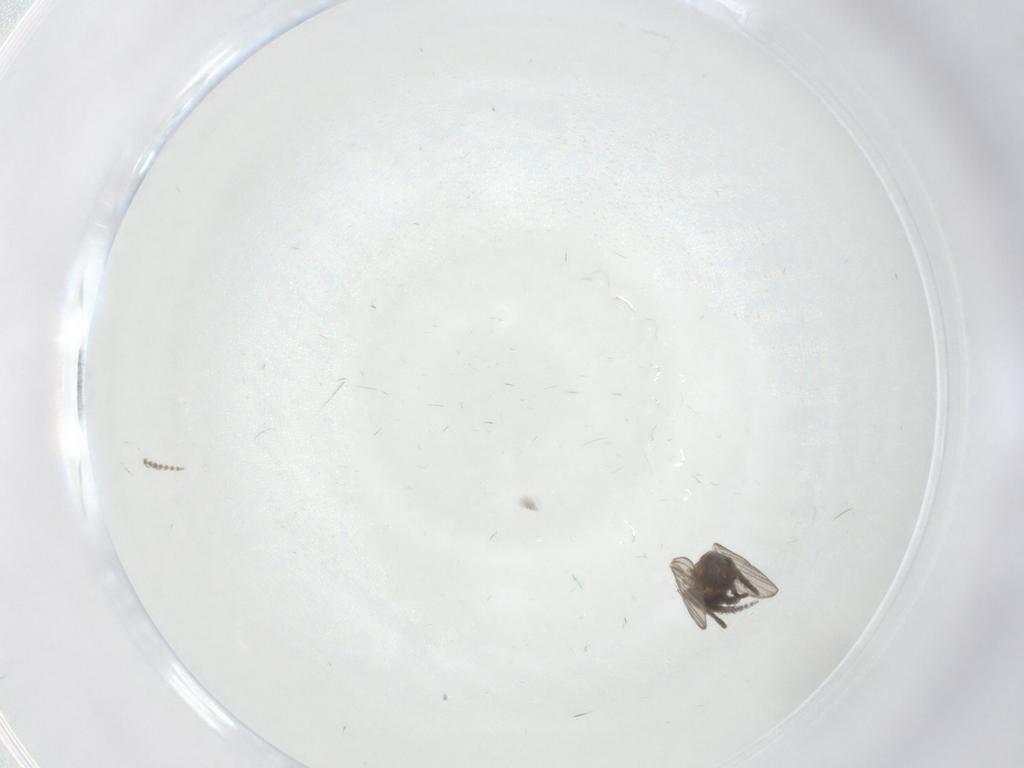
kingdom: Animalia
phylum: Arthropoda
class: Insecta
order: Diptera
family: Psychodidae
